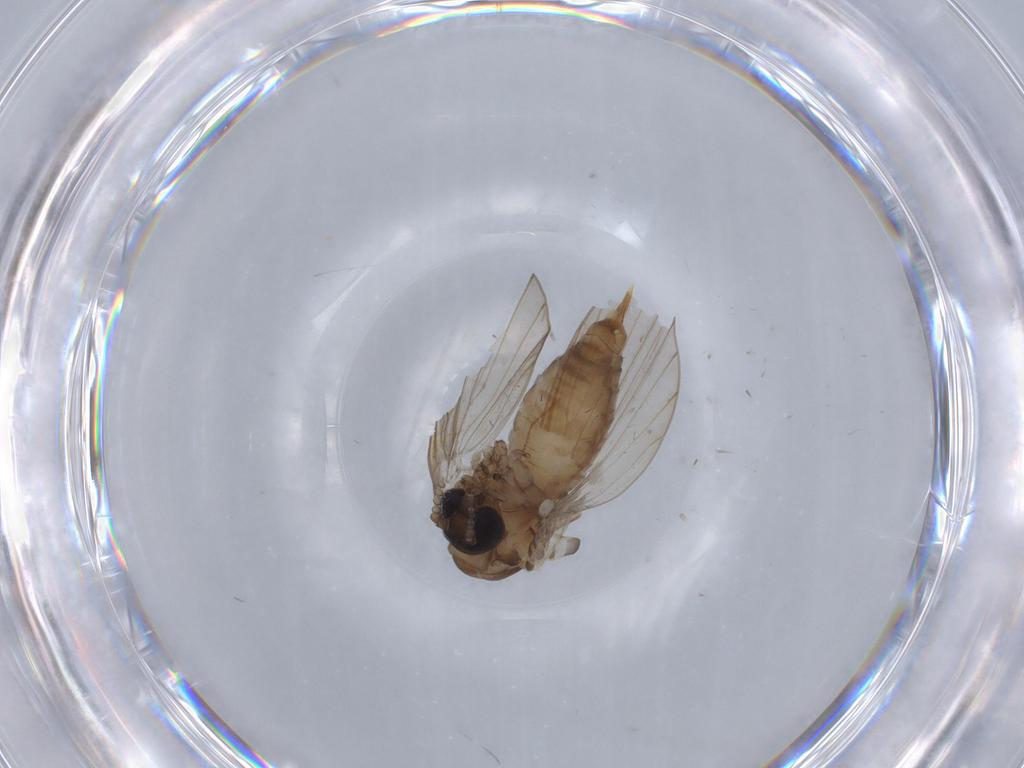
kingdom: Animalia
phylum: Arthropoda
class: Insecta
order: Diptera
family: Psychodidae
